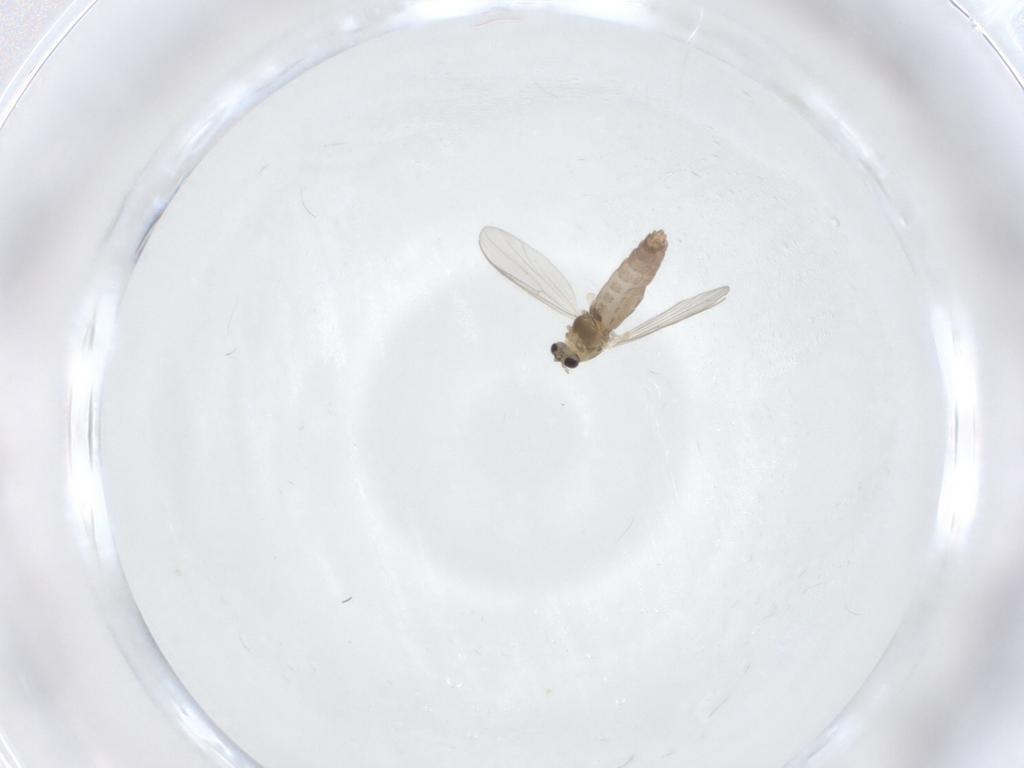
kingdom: Animalia
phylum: Arthropoda
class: Insecta
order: Diptera
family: Chironomidae
